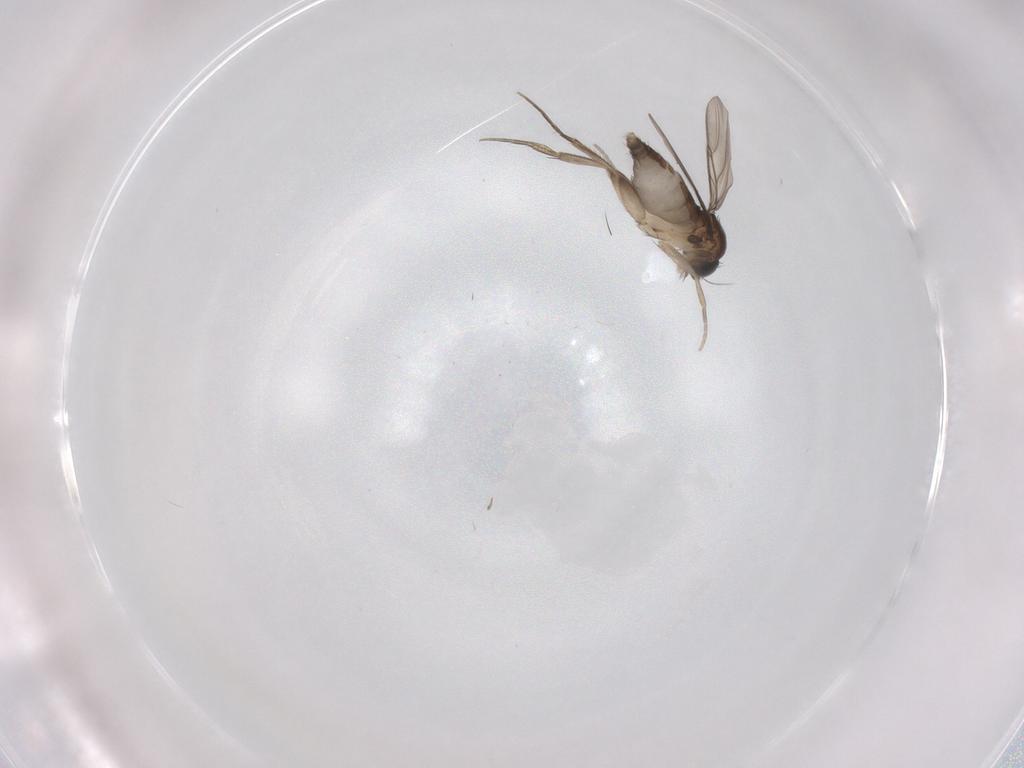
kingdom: Animalia
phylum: Arthropoda
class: Insecta
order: Diptera
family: Phoridae
